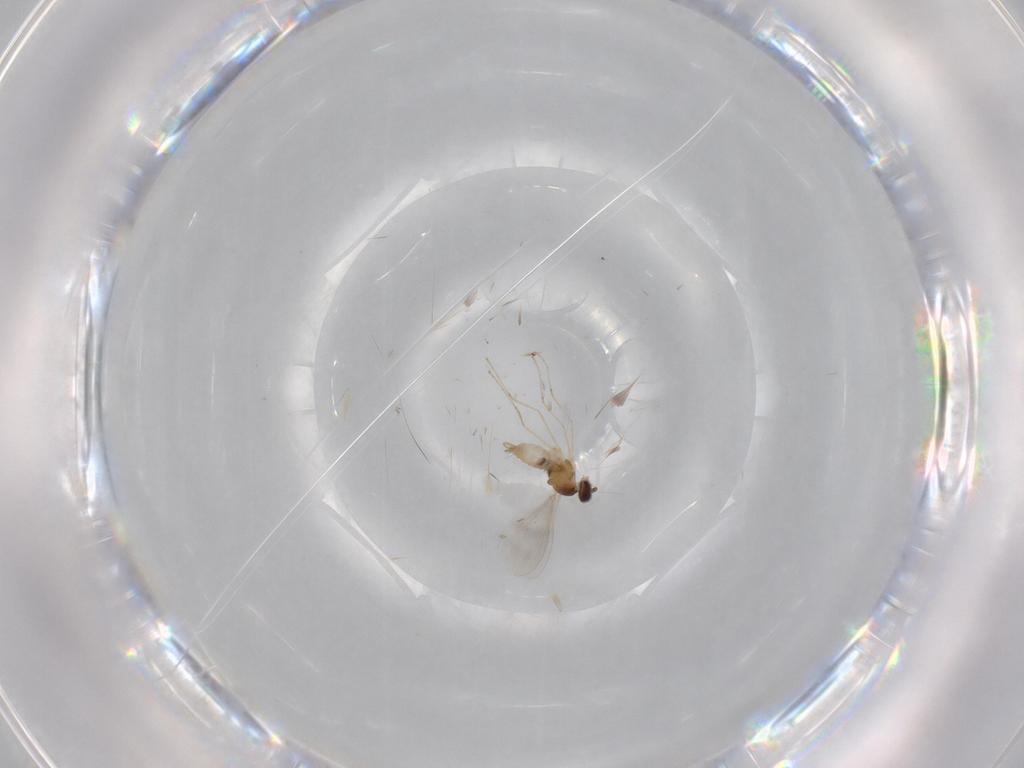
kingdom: Animalia
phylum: Arthropoda
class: Insecta
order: Diptera
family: Cecidomyiidae
